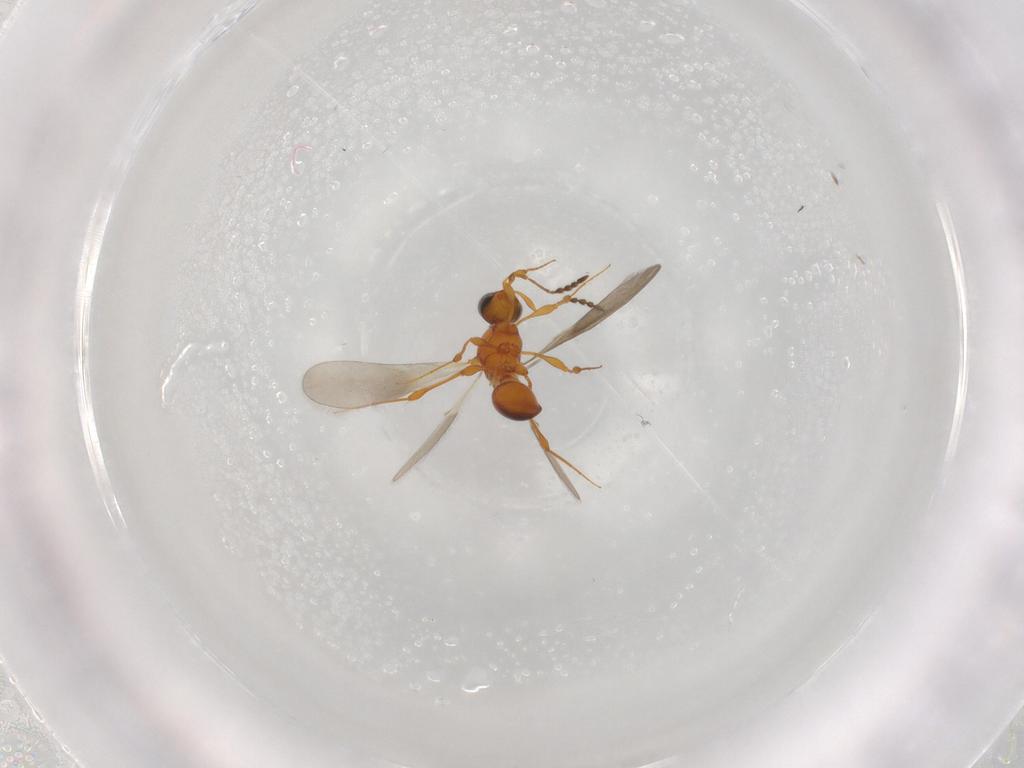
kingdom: Animalia
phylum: Arthropoda
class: Insecta
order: Hymenoptera
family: Platygastridae
